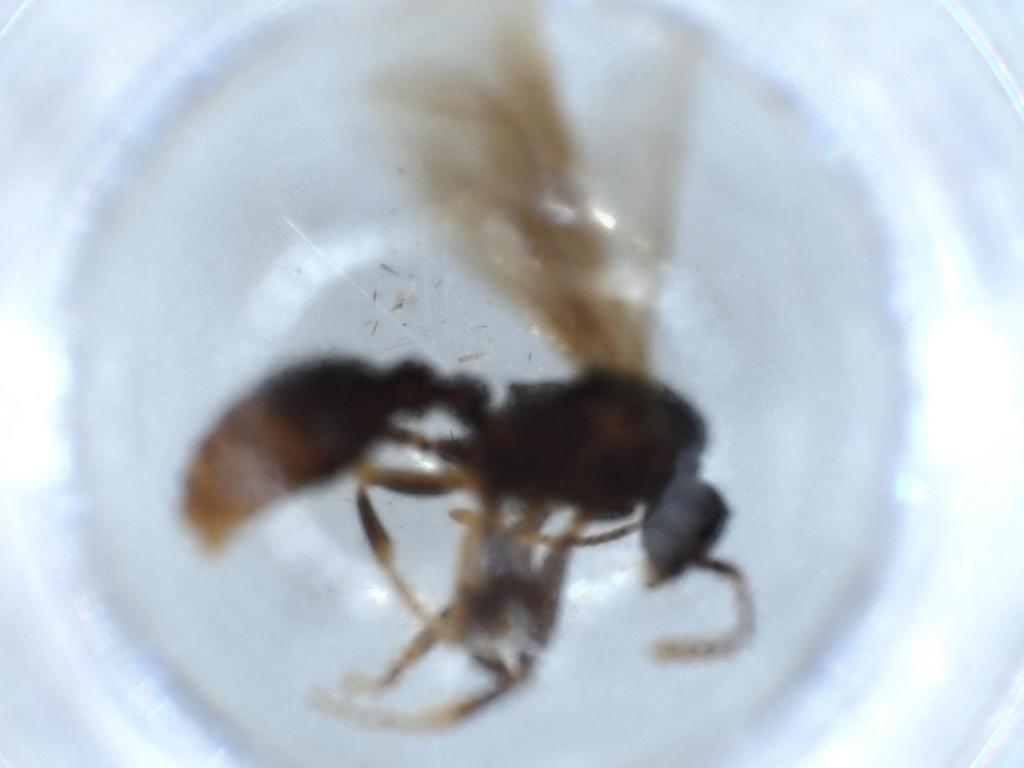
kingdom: Animalia
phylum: Arthropoda
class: Insecta
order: Hymenoptera
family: Formicidae
